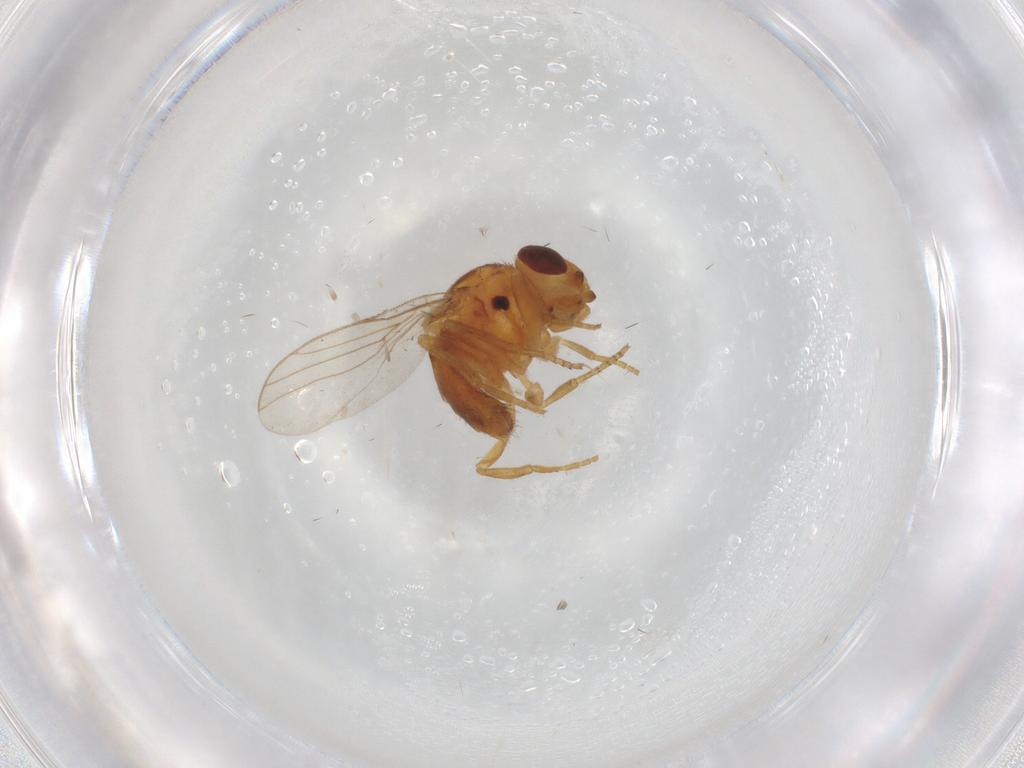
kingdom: Animalia
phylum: Arthropoda
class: Insecta
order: Diptera
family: Chloropidae
